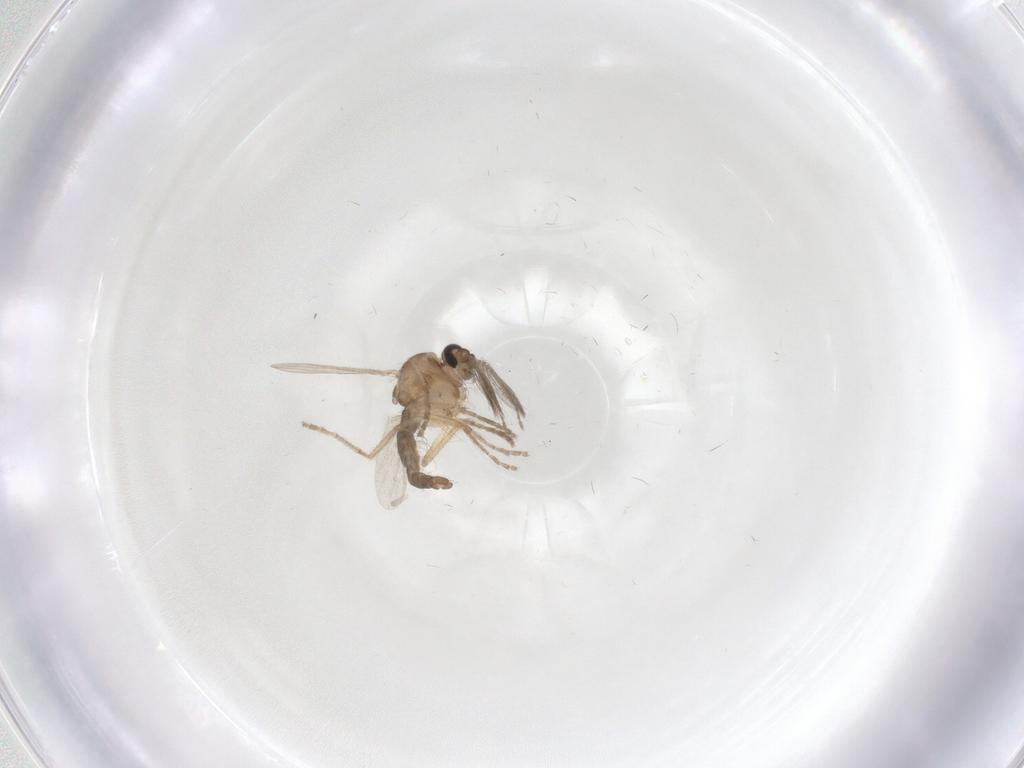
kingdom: Animalia
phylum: Arthropoda
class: Insecta
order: Diptera
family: Ceratopogonidae
